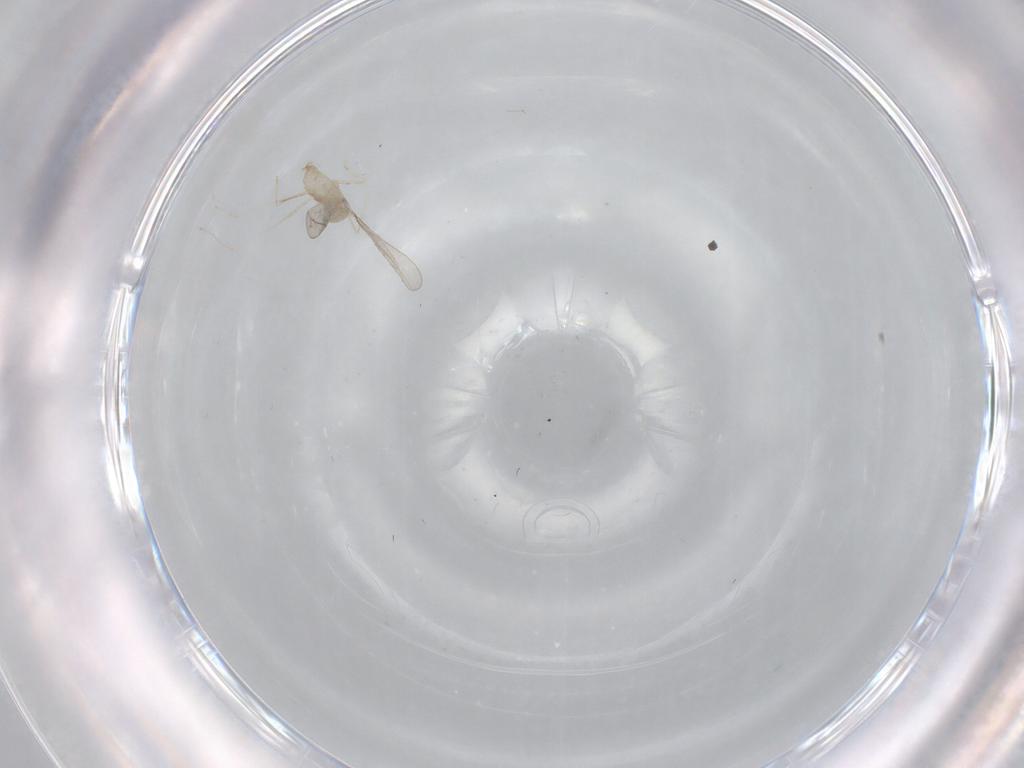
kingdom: Animalia
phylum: Arthropoda
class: Insecta
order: Diptera
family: Cecidomyiidae
